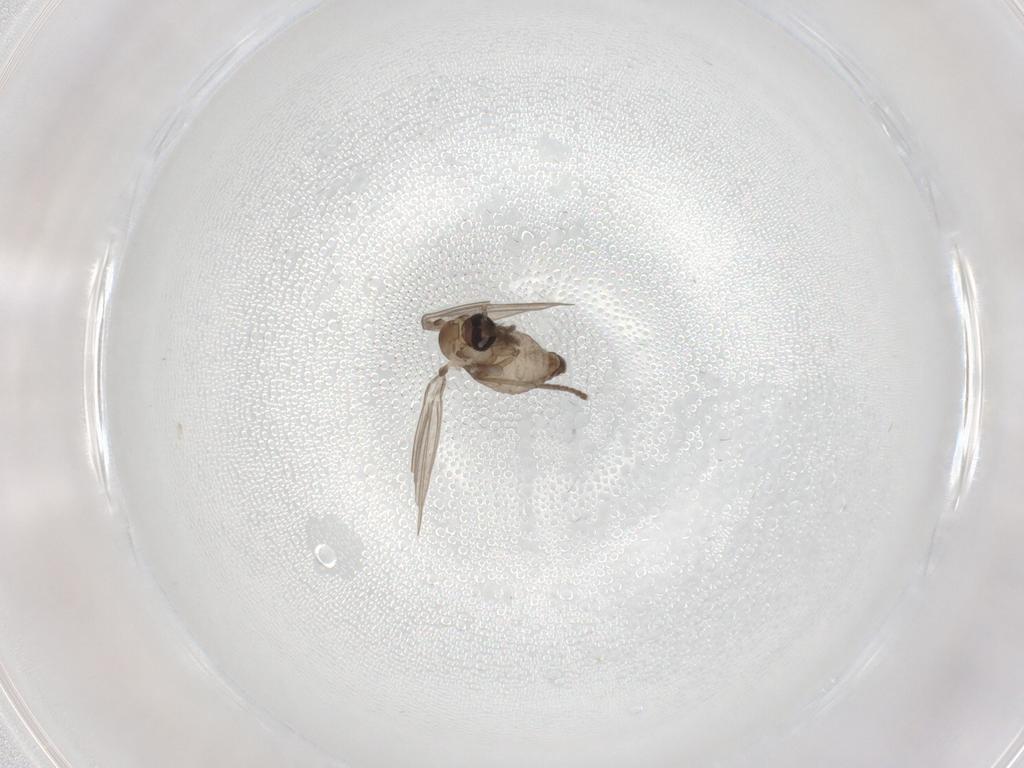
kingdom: Animalia
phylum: Arthropoda
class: Insecta
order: Diptera
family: Psychodidae
